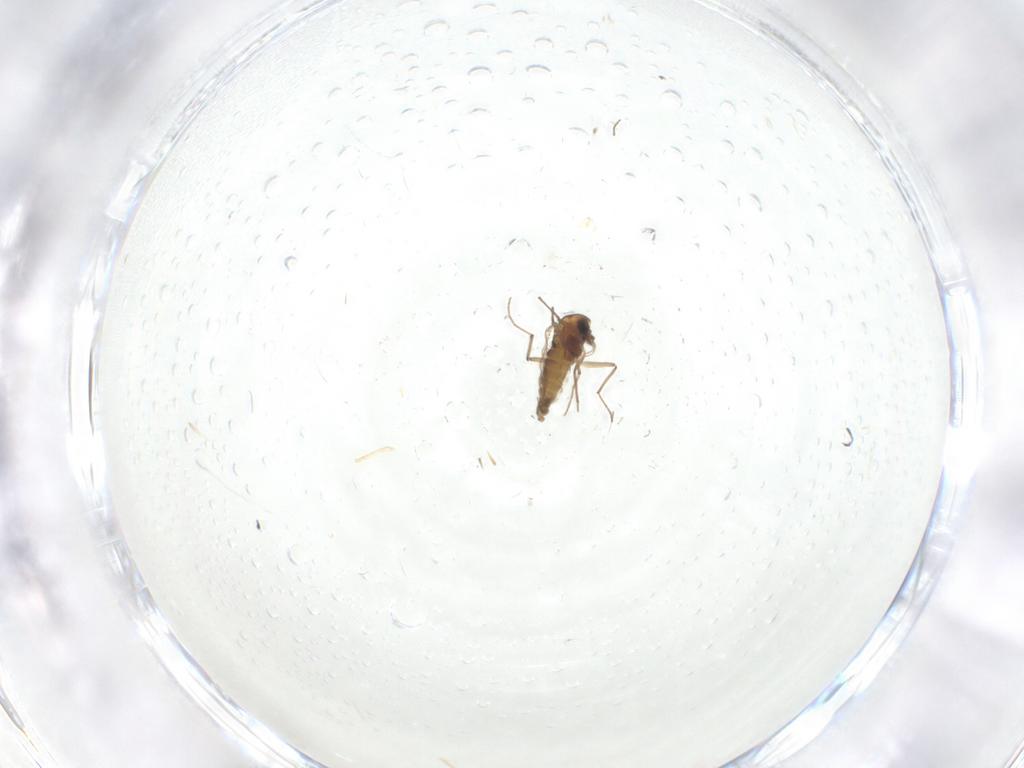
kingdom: Animalia
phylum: Arthropoda
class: Insecta
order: Diptera
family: Chironomidae
